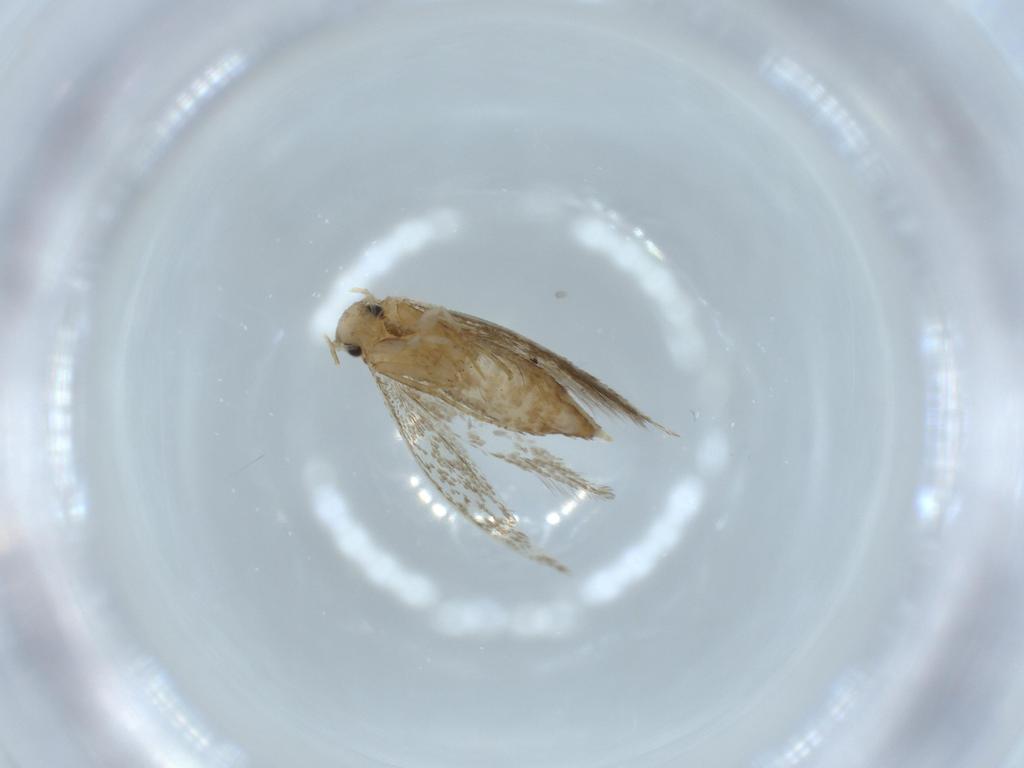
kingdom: Animalia
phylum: Arthropoda
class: Insecta
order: Lepidoptera
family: Tineidae
